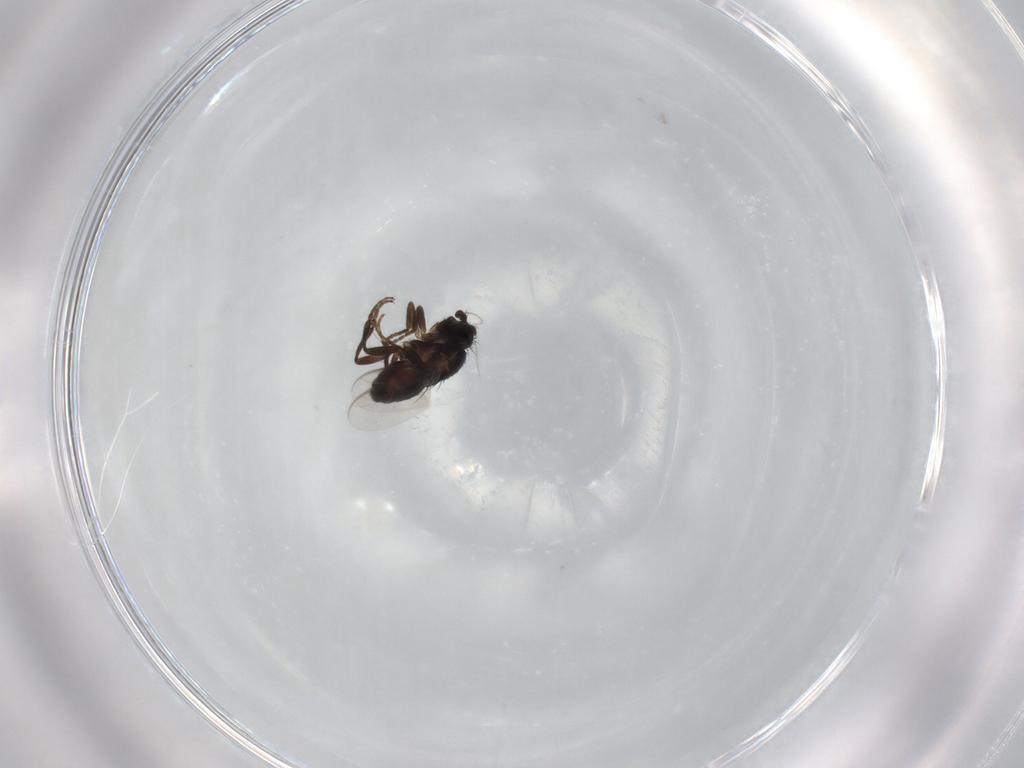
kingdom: Animalia
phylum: Arthropoda
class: Insecta
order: Diptera
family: Sphaeroceridae
